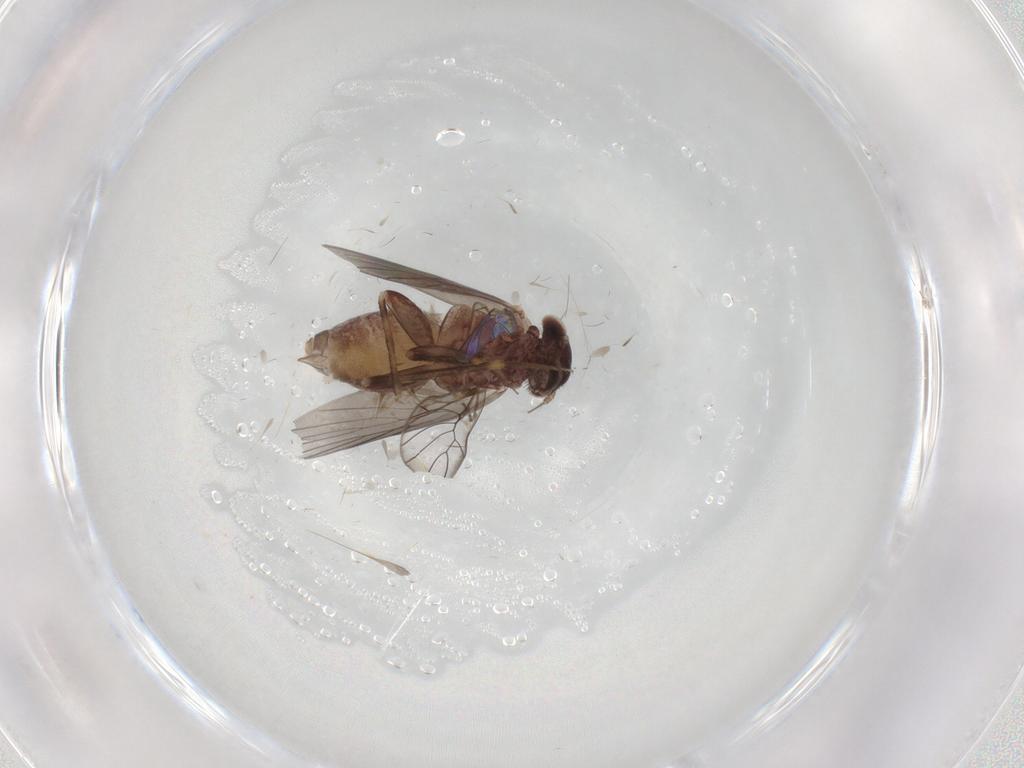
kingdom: Animalia
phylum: Arthropoda
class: Insecta
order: Psocodea
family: Lepidopsocidae
